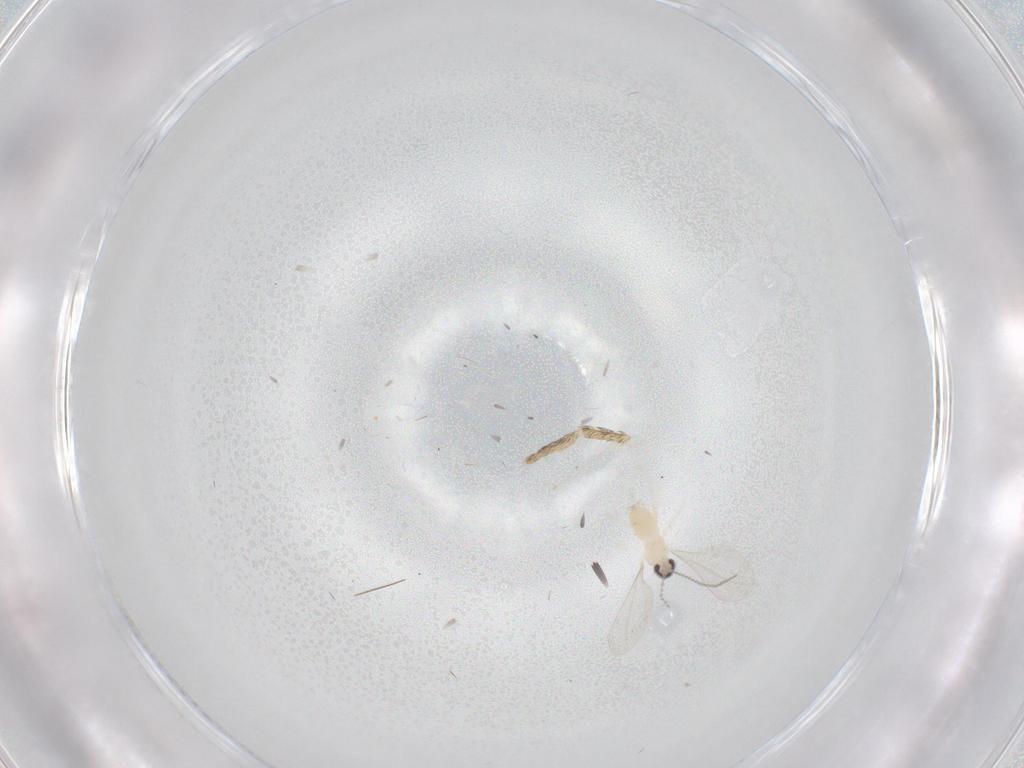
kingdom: Animalia
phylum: Arthropoda
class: Insecta
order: Diptera
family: Cecidomyiidae
